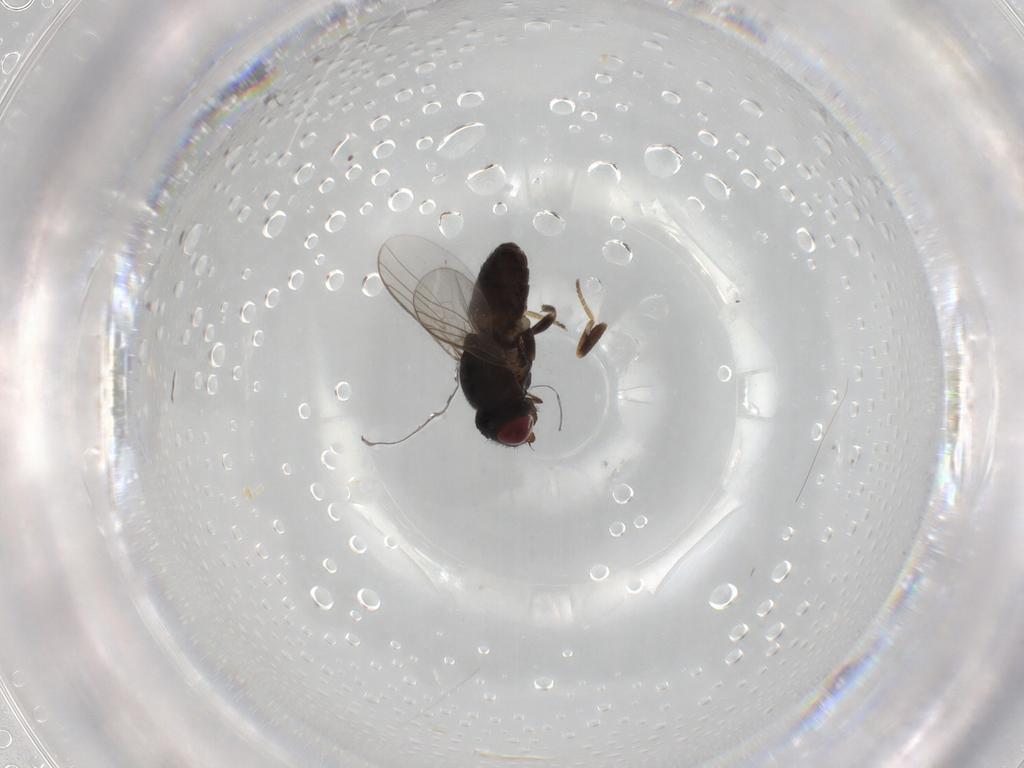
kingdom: Animalia
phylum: Arthropoda
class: Insecta
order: Diptera
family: Chloropidae
